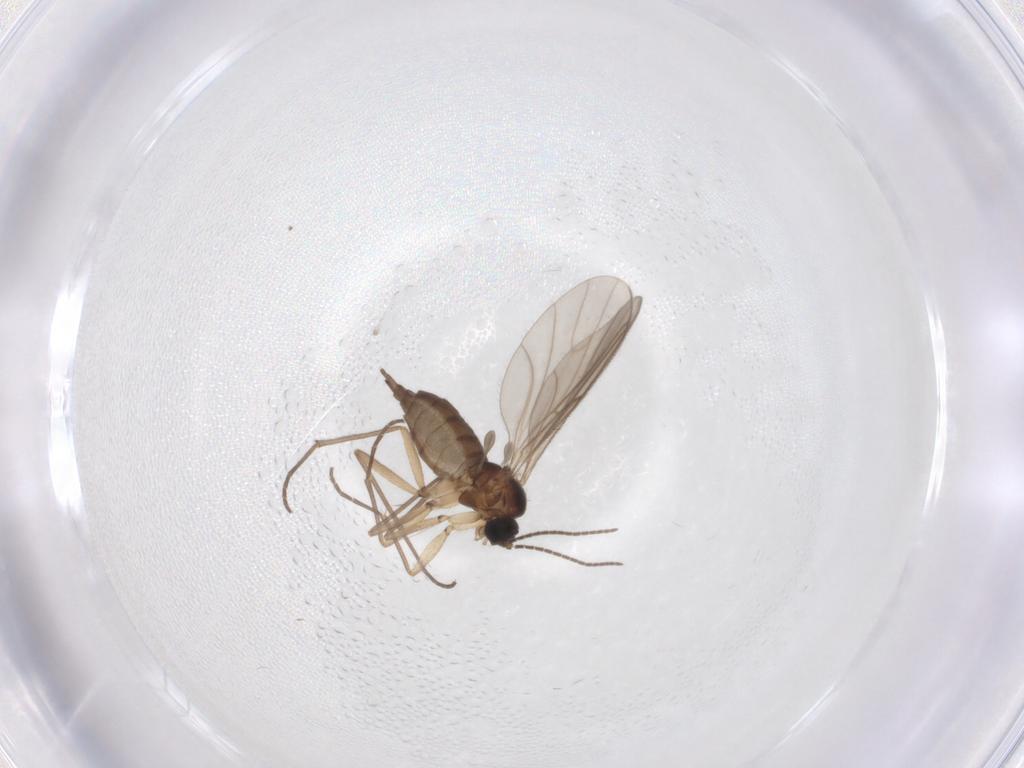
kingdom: Animalia
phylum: Arthropoda
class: Insecta
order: Diptera
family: Sciaridae
